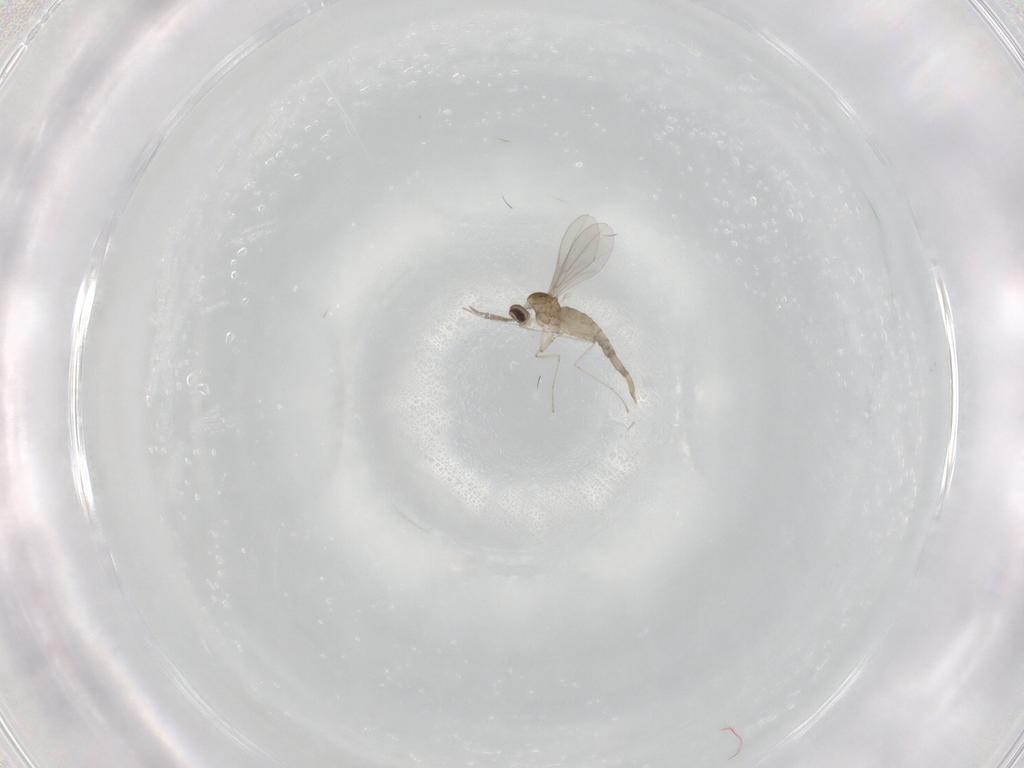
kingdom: Animalia
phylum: Arthropoda
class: Insecta
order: Diptera
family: Cecidomyiidae
